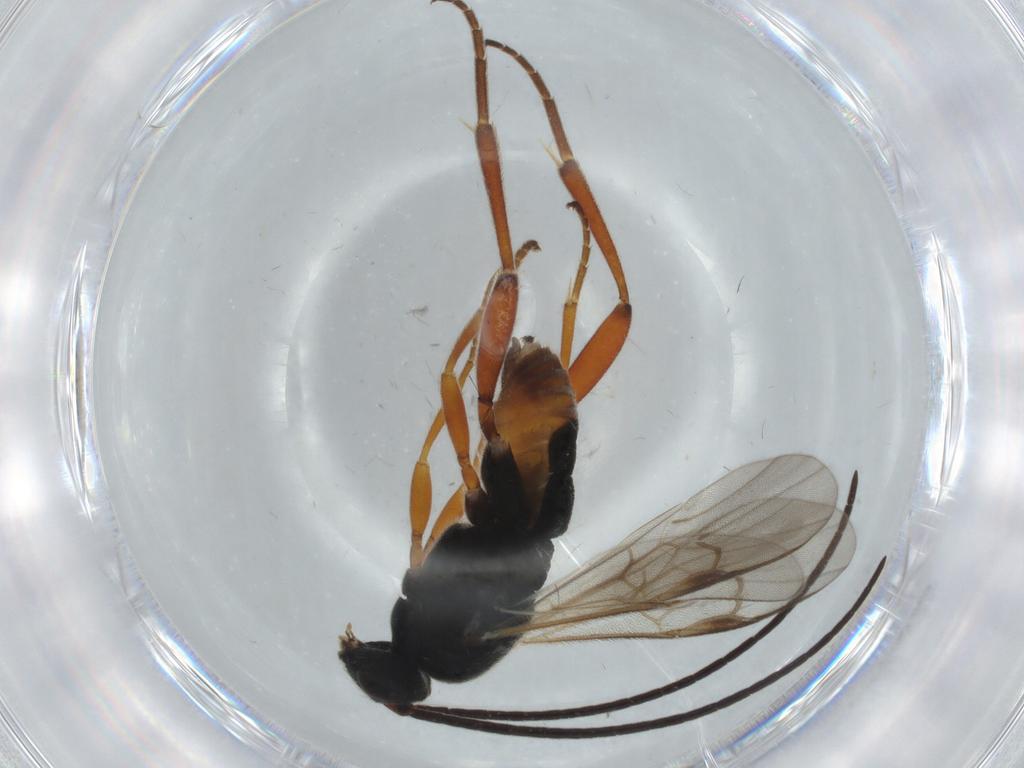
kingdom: Animalia
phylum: Arthropoda
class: Insecta
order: Hymenoptera
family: Braconidae
